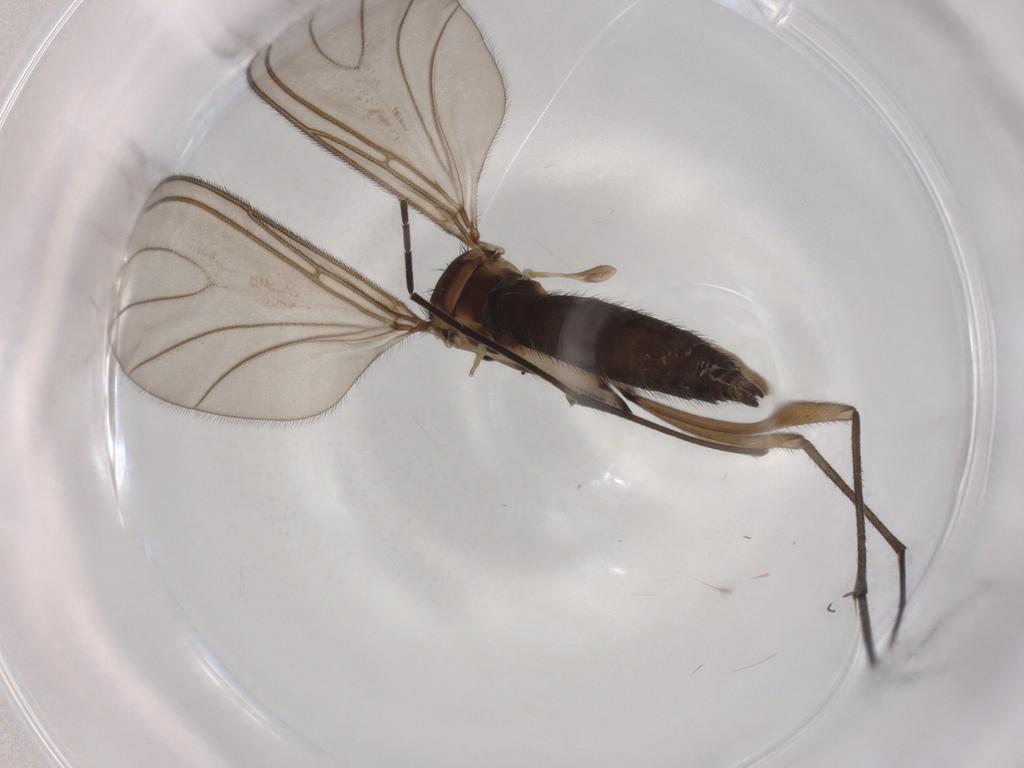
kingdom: Animalia
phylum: Arthropoda
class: Insecta
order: Diptera
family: Sciaridae
